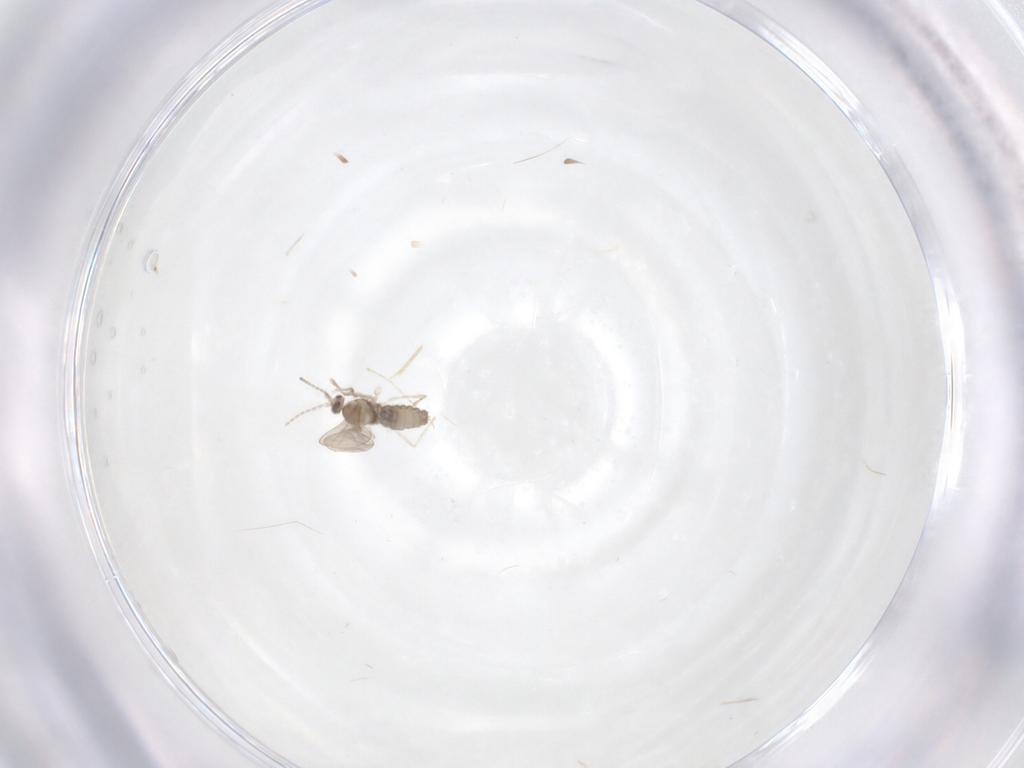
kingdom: Animalia
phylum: Arthropoda
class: Insecta
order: Diptera
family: Cecidomyiidae
